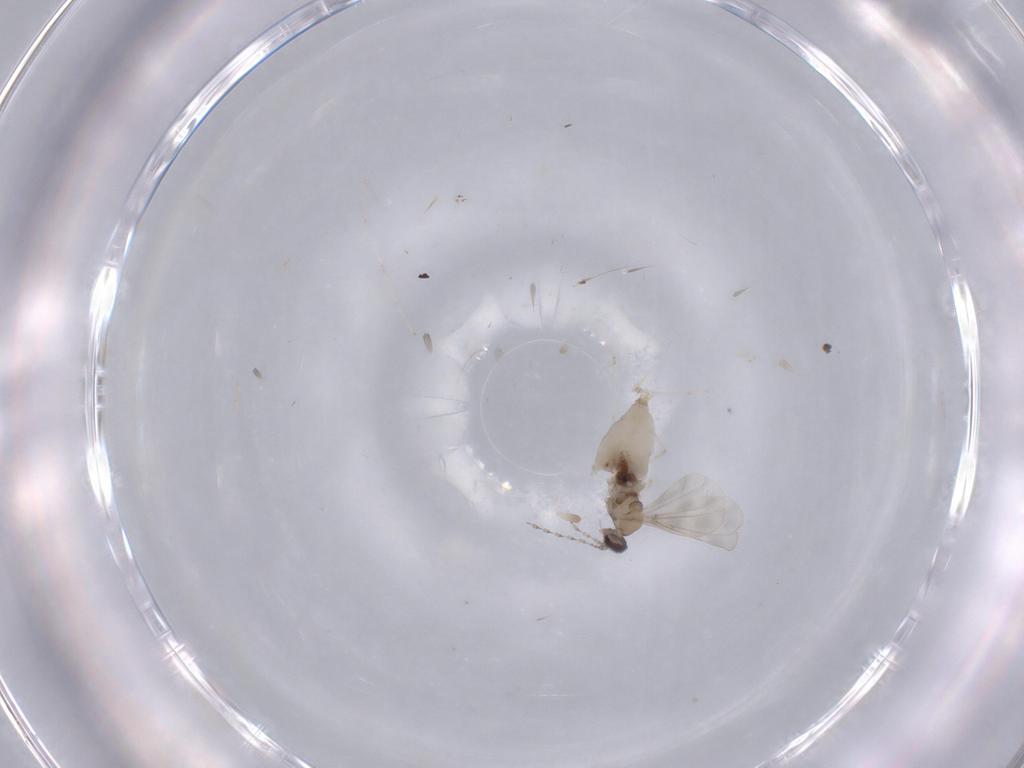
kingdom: Animalia
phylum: Arthropoda
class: Insecta
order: Diptera
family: Cecidomyiidae
